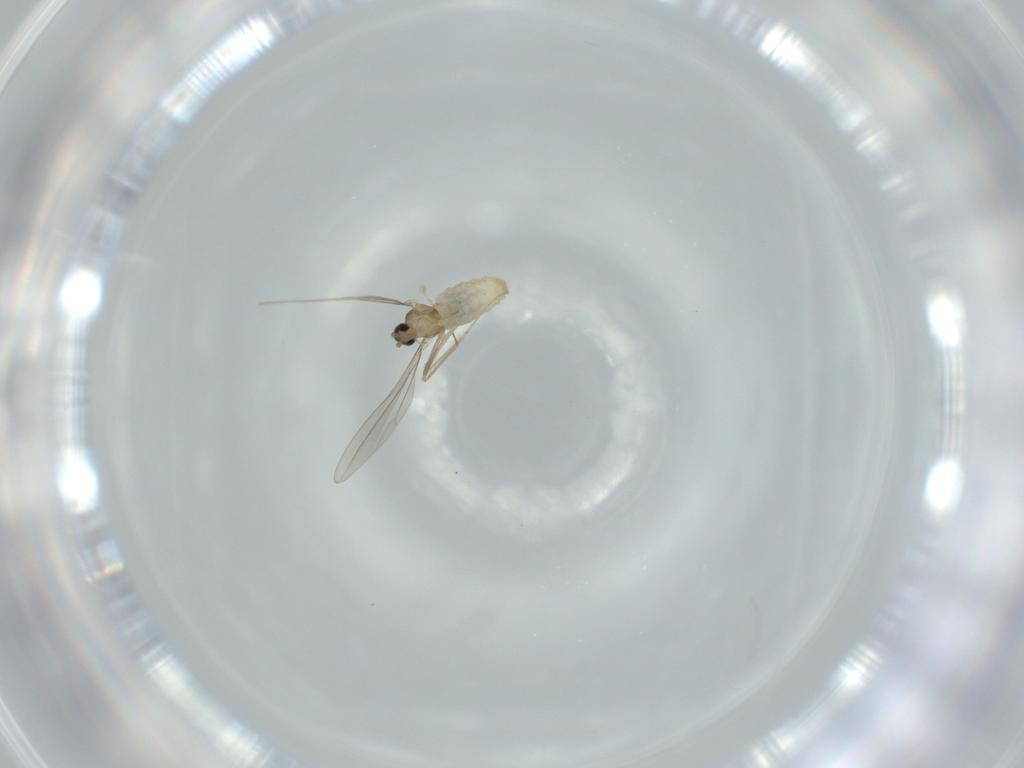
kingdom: Animalia
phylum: Arthropoda
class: Insecta
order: Diptera
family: Cecidomyiidae
